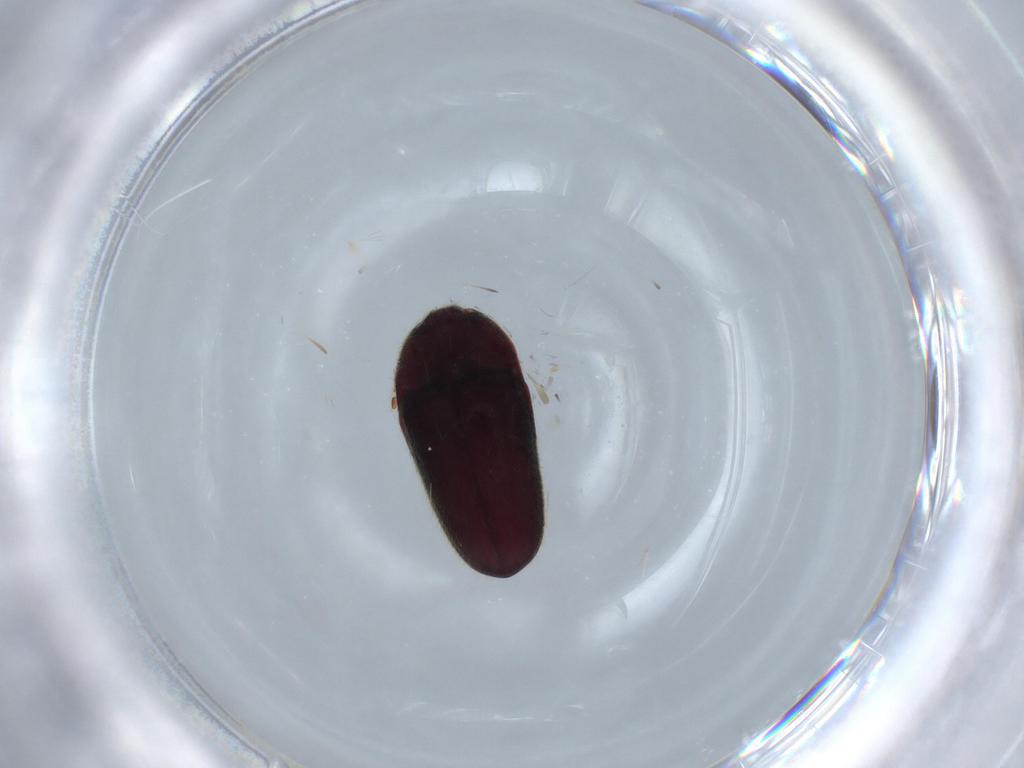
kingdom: Animalia
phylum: Arthropoda
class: Insecta
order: Coleoptera
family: Throscidae
